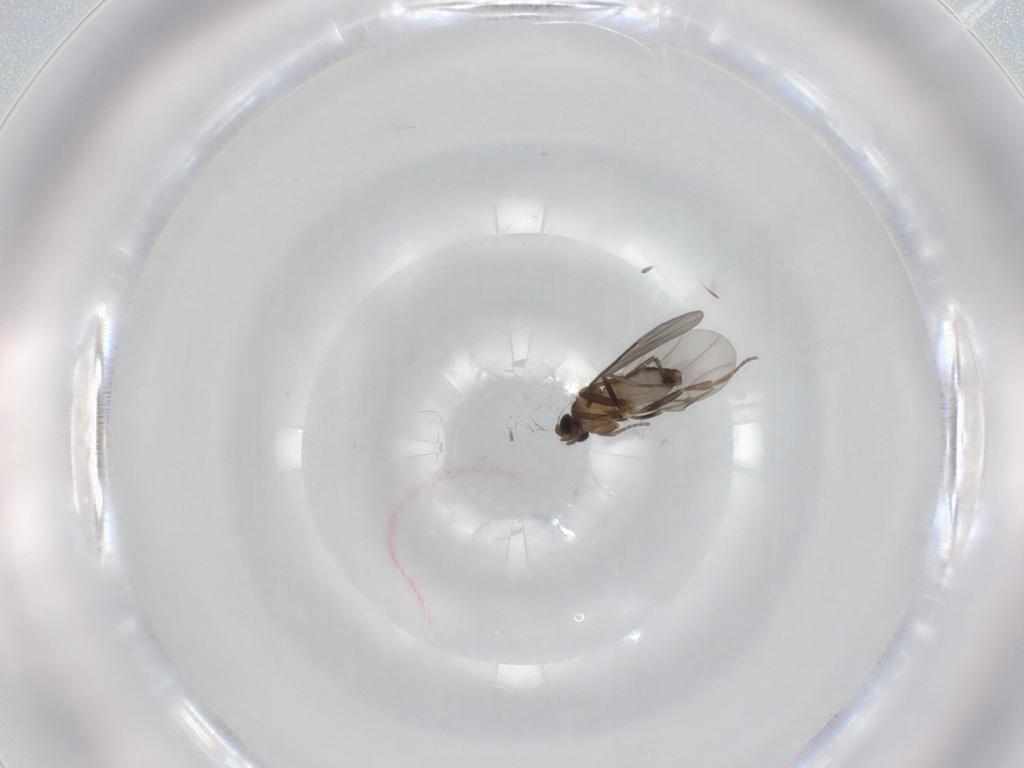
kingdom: Animalia
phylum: Arthropoda
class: Insecta
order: Diptera
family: Phoridae
